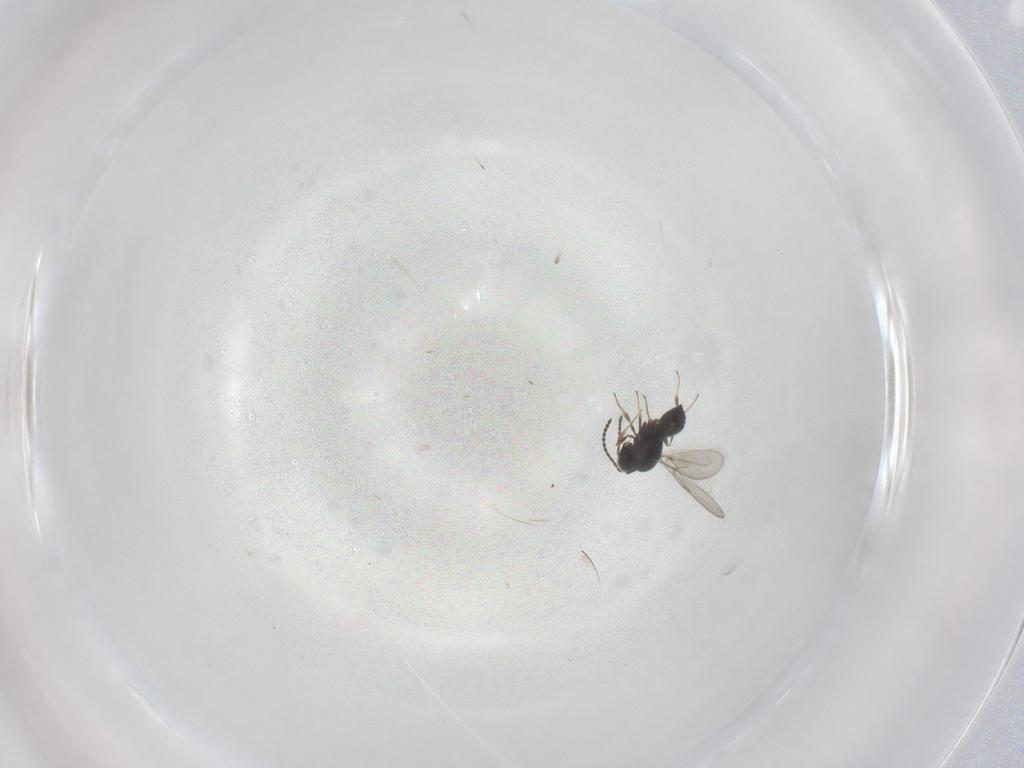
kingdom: Animalia
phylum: Arthropoda
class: Insecta
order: Hymenoptera
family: Scelionidae
